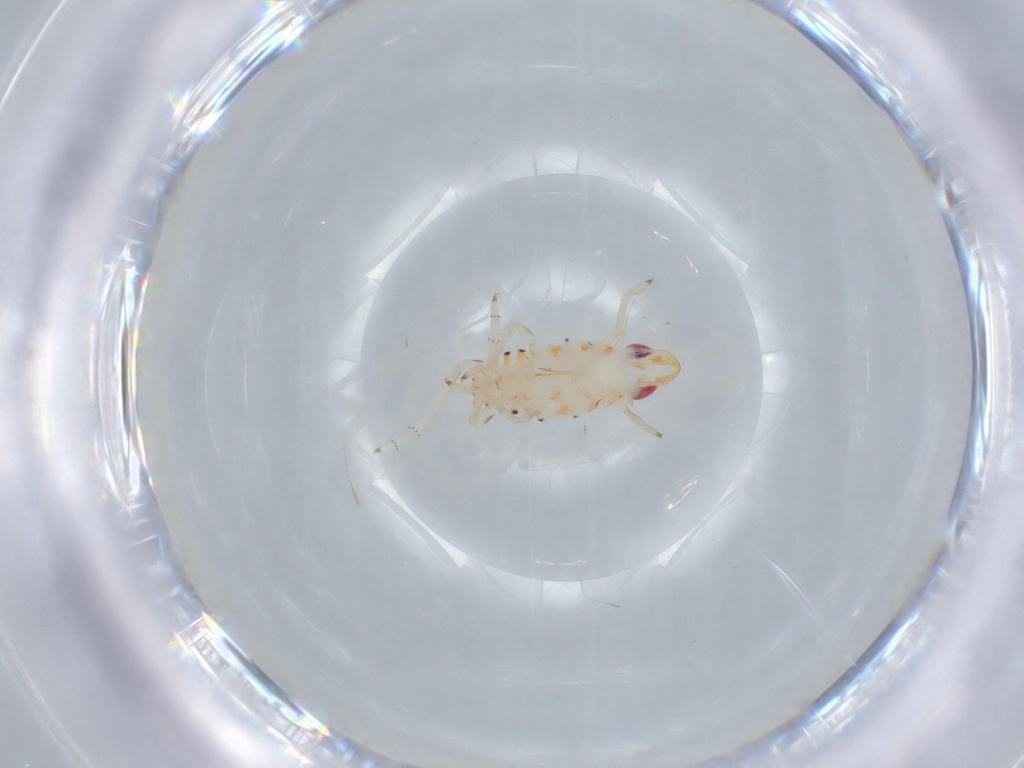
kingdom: Animalia
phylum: Arthropoda
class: Insecta
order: Hemiptera
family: Tropiduchidae
